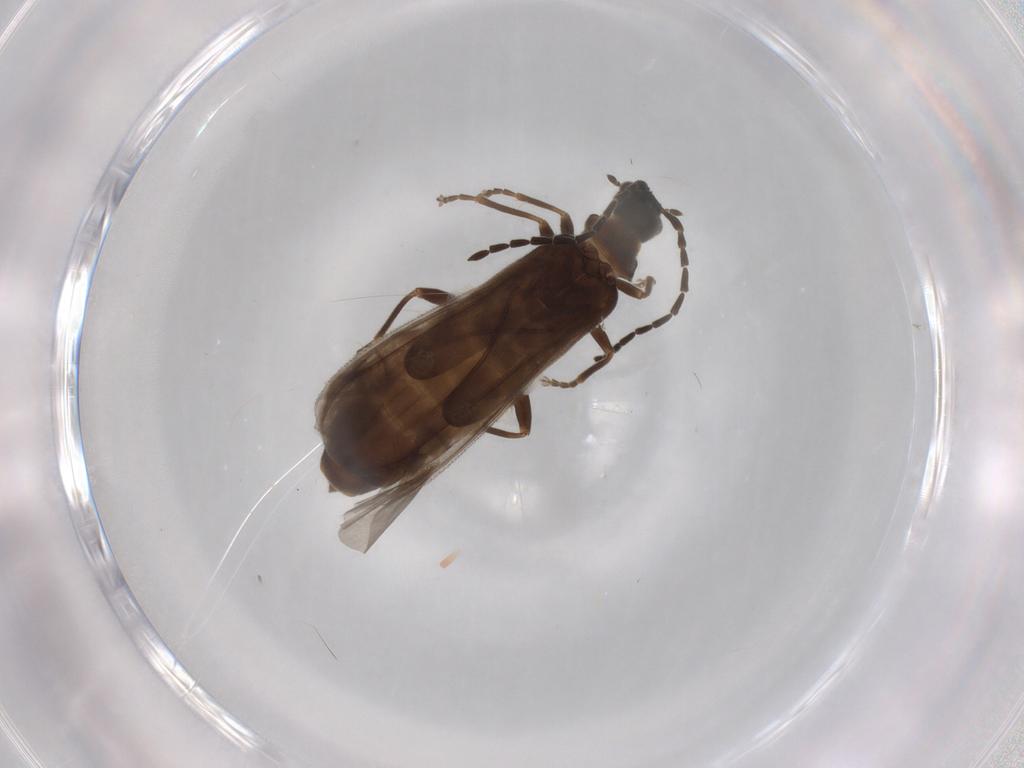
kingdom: Animalia
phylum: Arthropoda
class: Insecta
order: Coleoptera
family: Cantharidae
